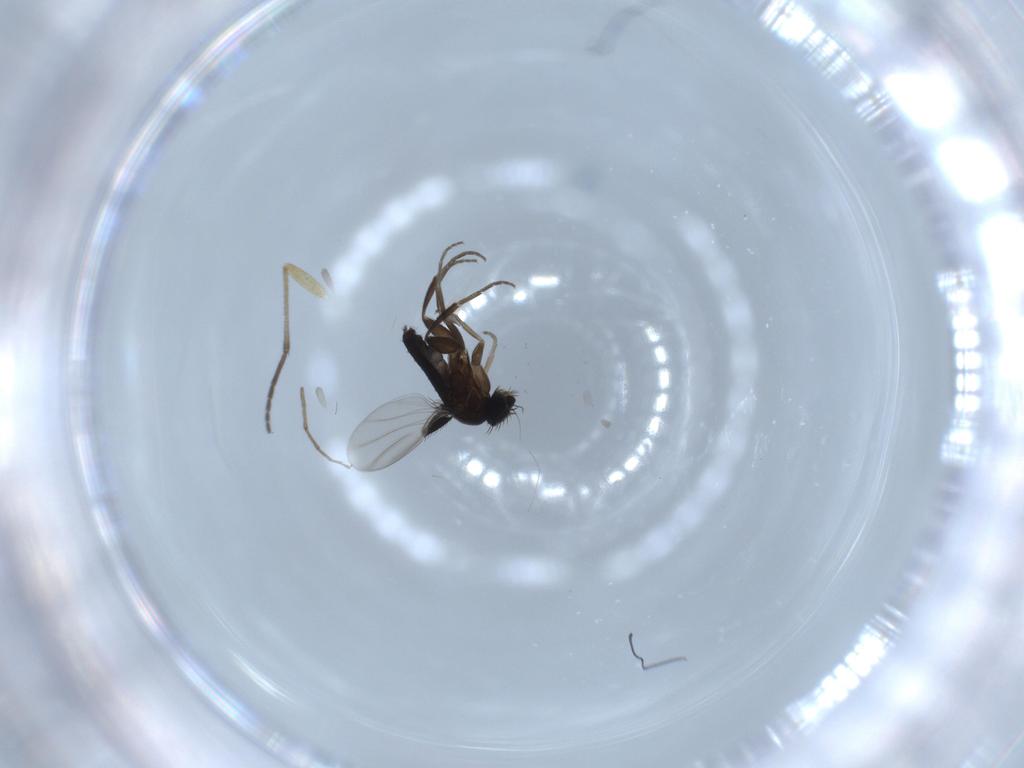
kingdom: Animalia
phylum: Arthropoda
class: Insecta
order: Diptera
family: Sciaridae
